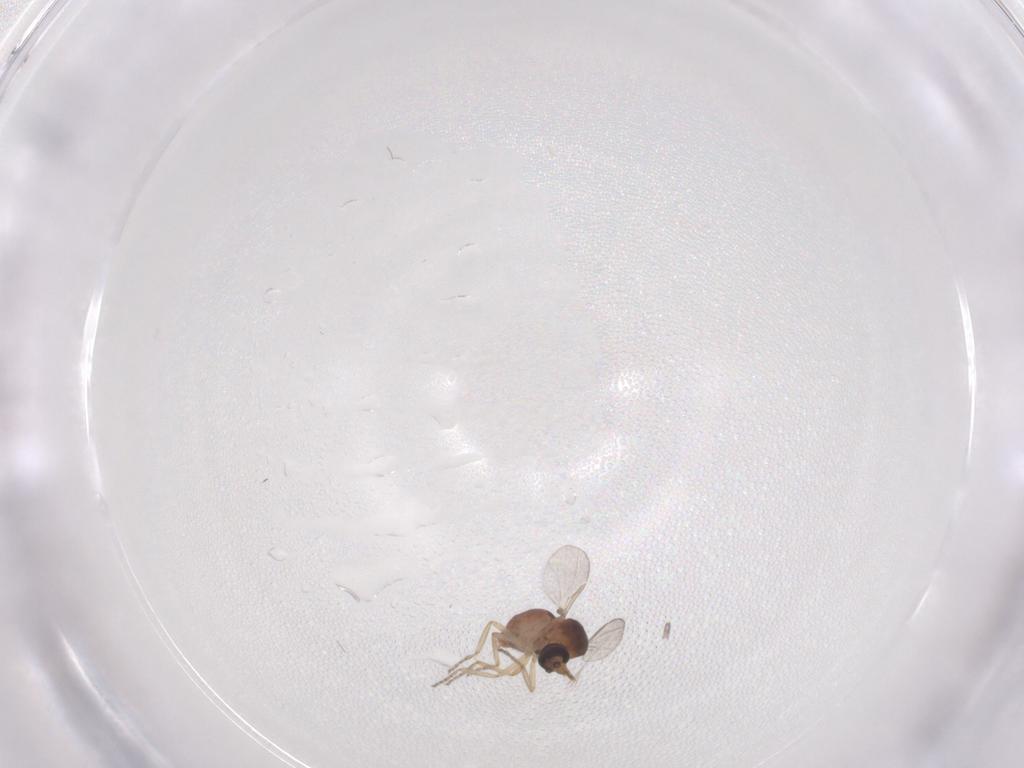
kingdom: Animalia
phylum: Arthropoda
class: Insecta
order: Diptera
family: Ceratopogonidae
